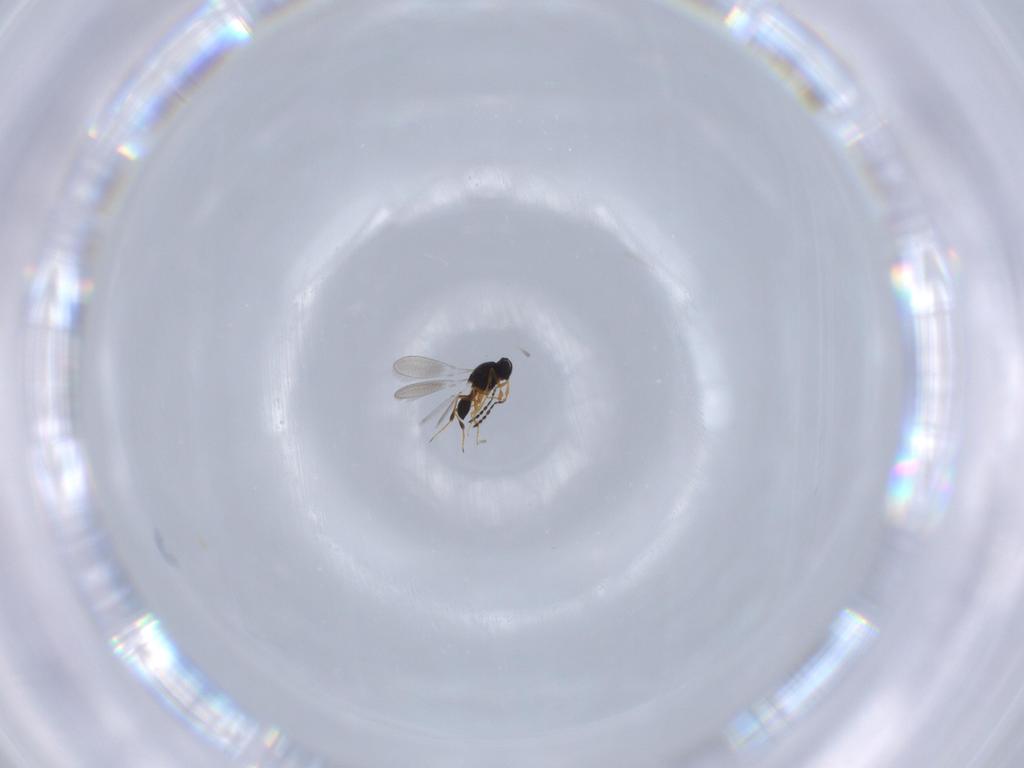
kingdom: Animalia
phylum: Arthropoda
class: Insecta
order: Hymenoptera
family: Platygastridae
